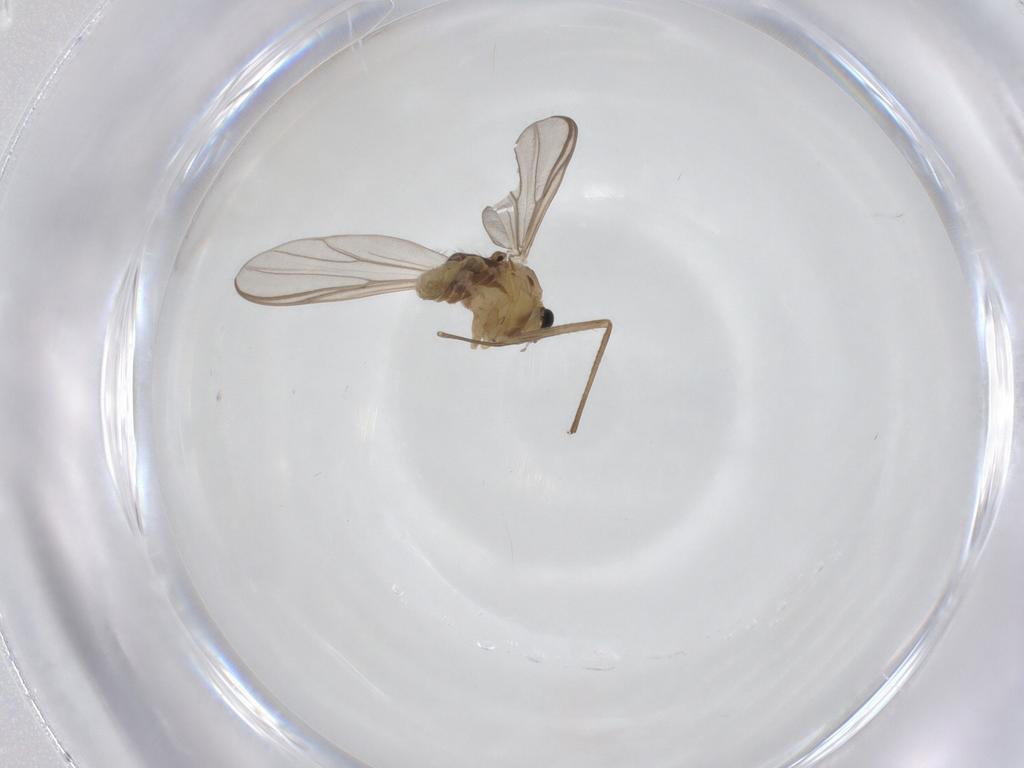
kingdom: Animalia
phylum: Arthropoda
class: Insecta
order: Diptera
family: Chironomidae
